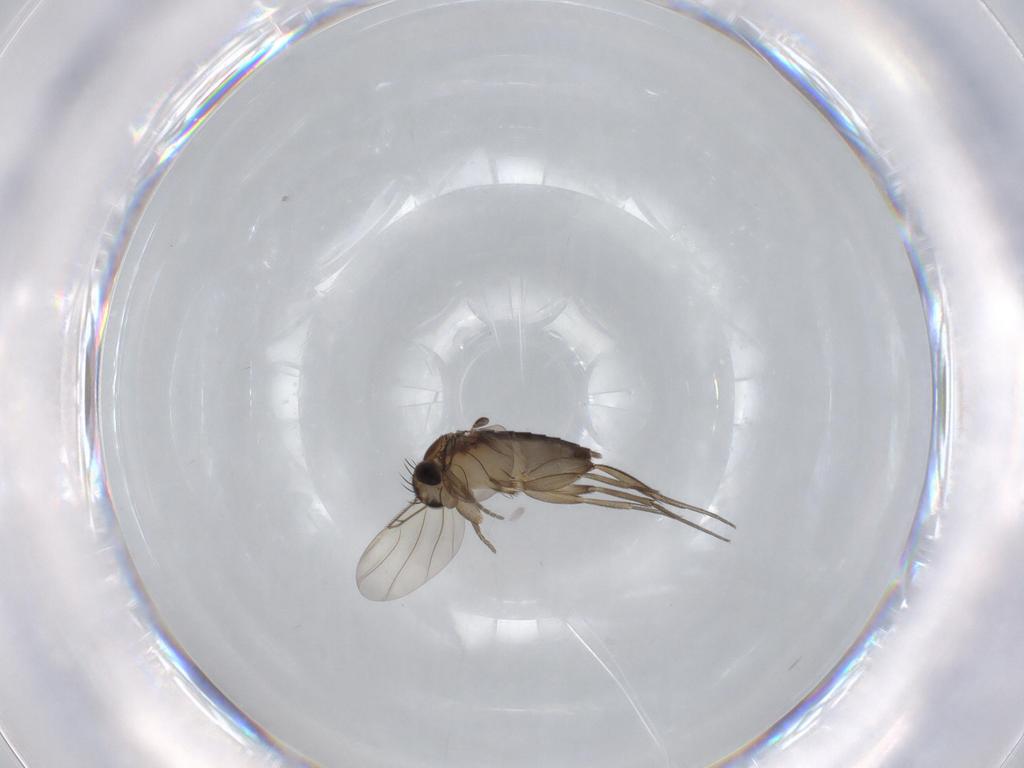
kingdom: Animalia
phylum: Arthropoda
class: Insecta
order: Diptera
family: Phoridae
